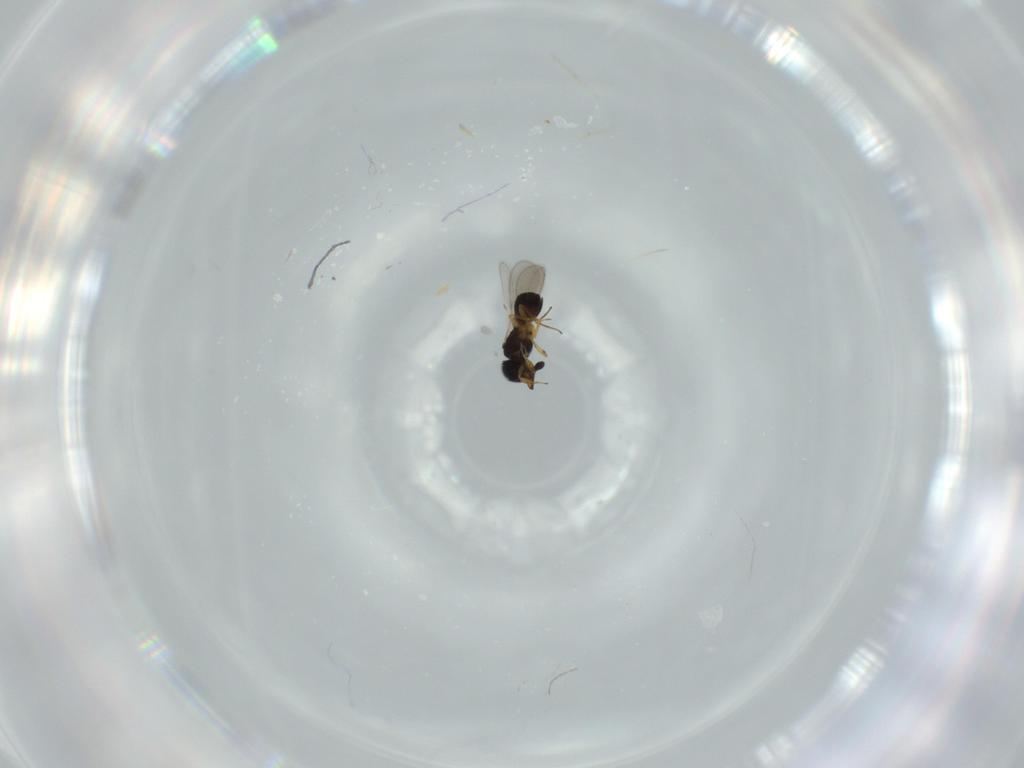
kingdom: Animalia
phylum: Arthropoda
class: Insecta
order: Hymenoptera
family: Scelionidae
